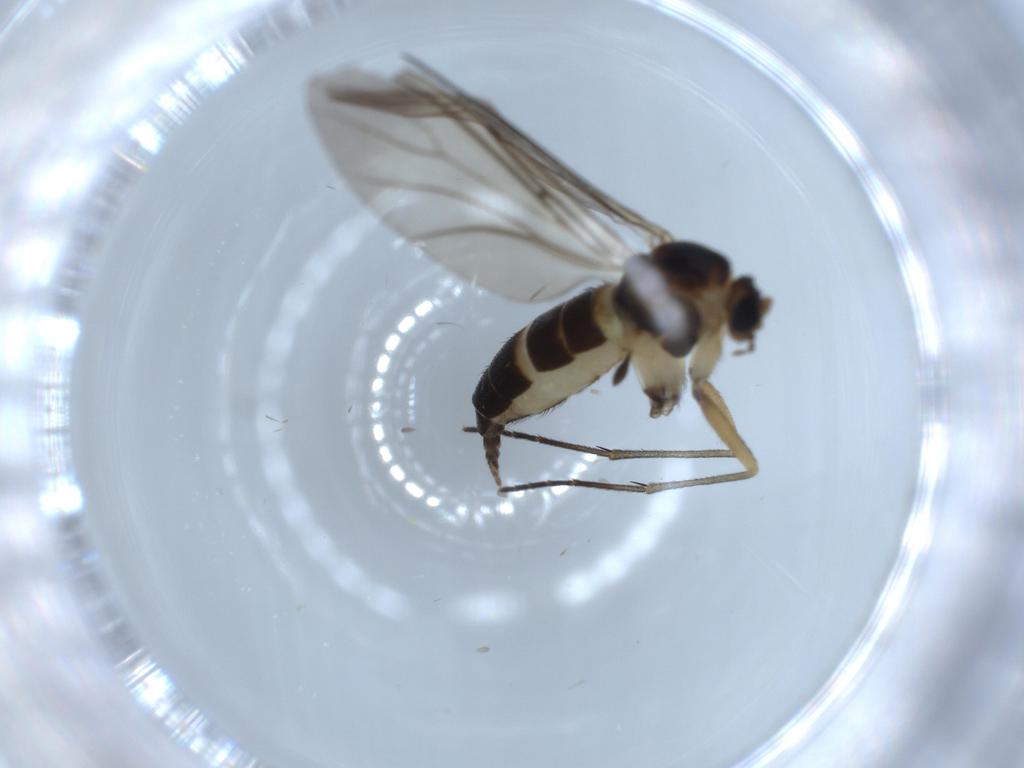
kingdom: Animalia
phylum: Arthropoda
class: Insecta
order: Diptera
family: Sciaridae
